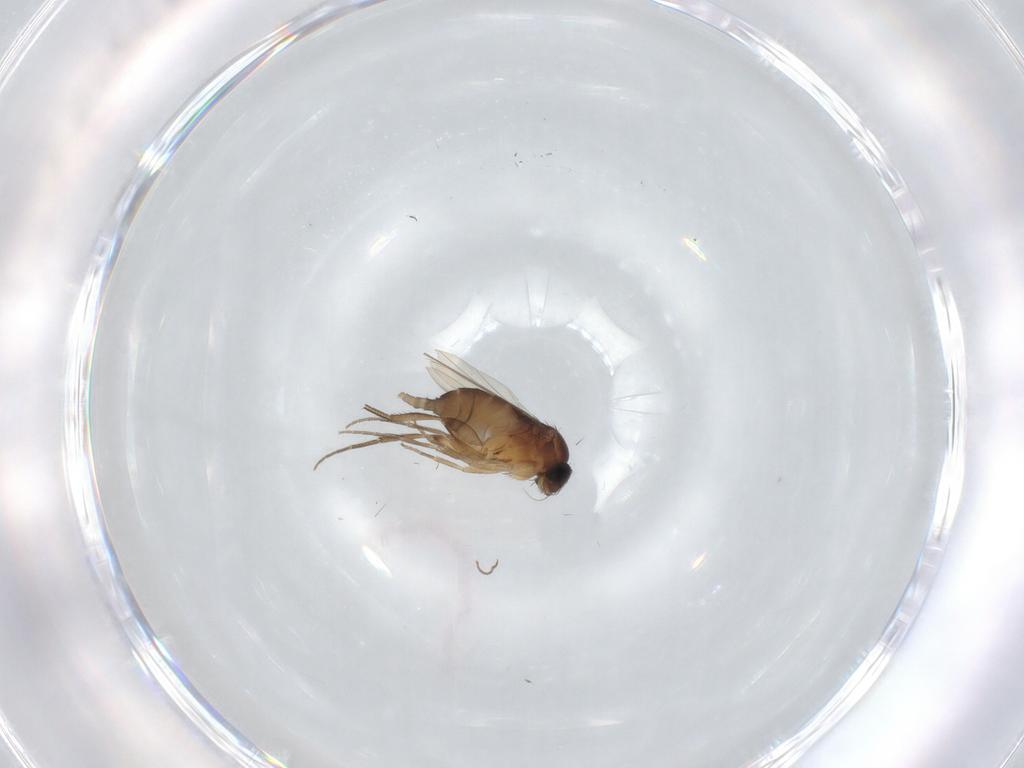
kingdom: Animalia
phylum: Arthropoda
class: Insecta
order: Diptera
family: Phoridae
